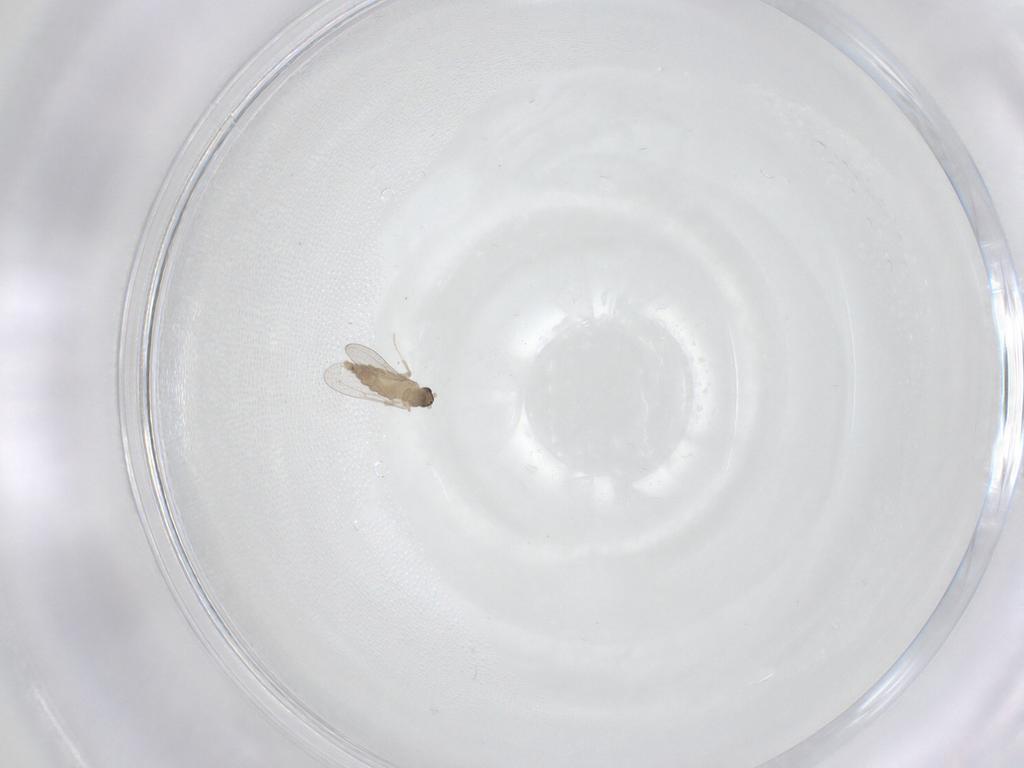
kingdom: Animalia
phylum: Arthropoda
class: Insecta
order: Diptera
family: Cecidomyiidae
